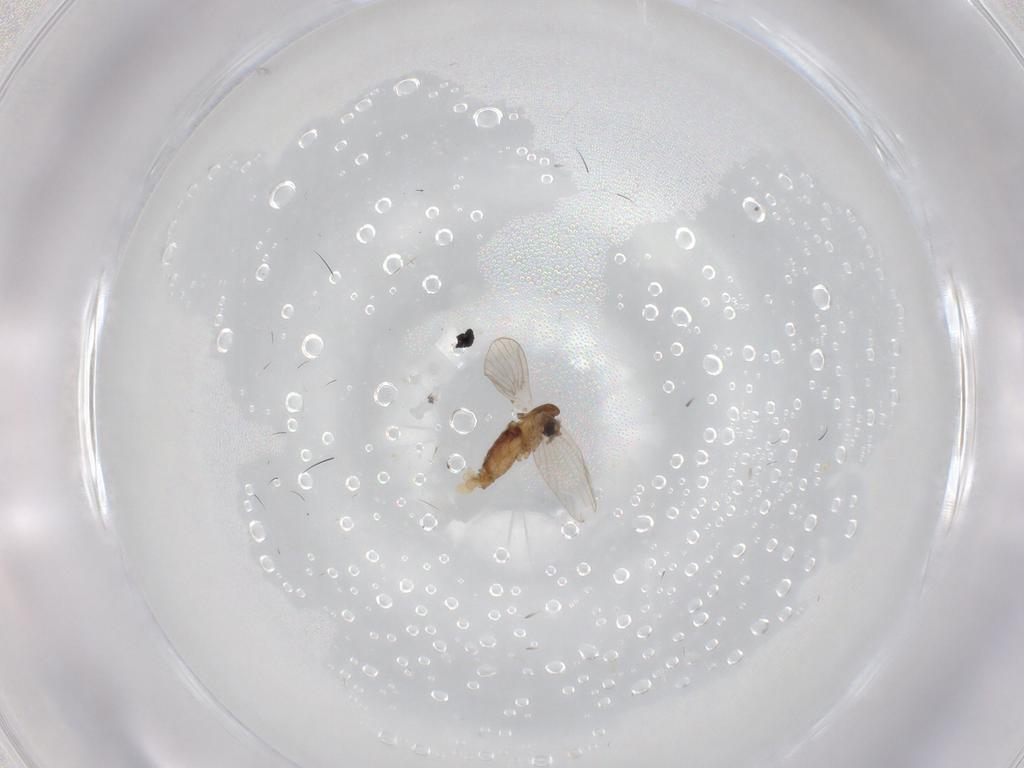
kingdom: Animalia
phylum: Arthropoda
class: Insecta
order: Diptera
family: Psychodidae
